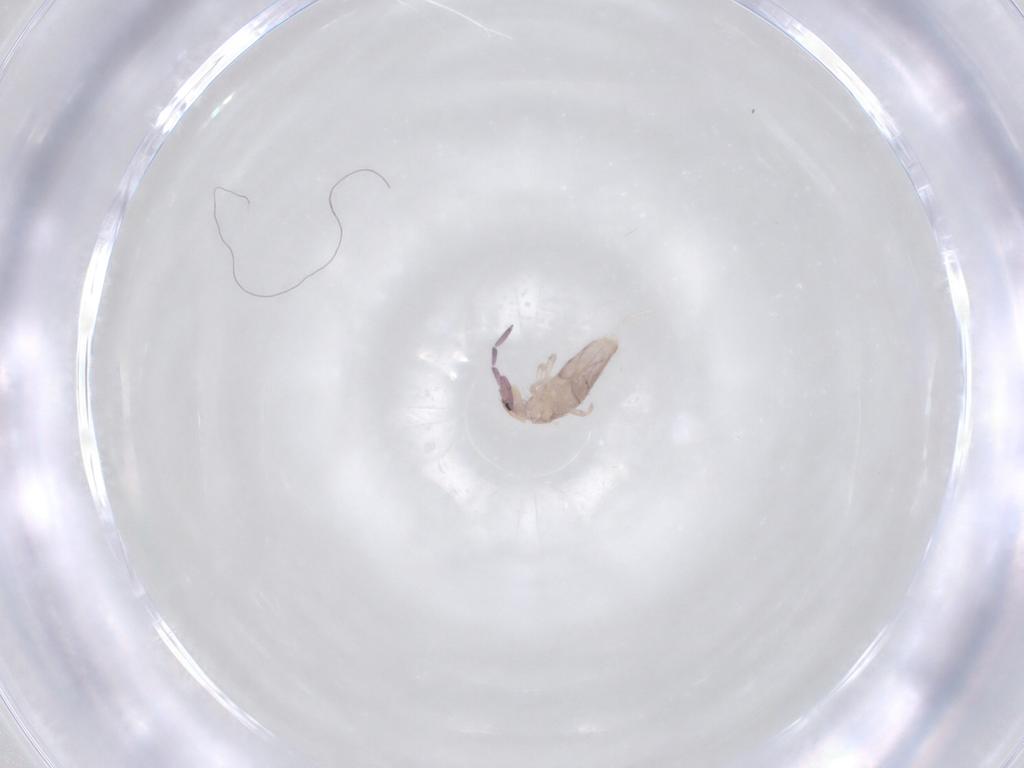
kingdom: Animalia
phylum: Arthropoda
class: Collembola
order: Entomobryomorpha
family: Entomobryidae
